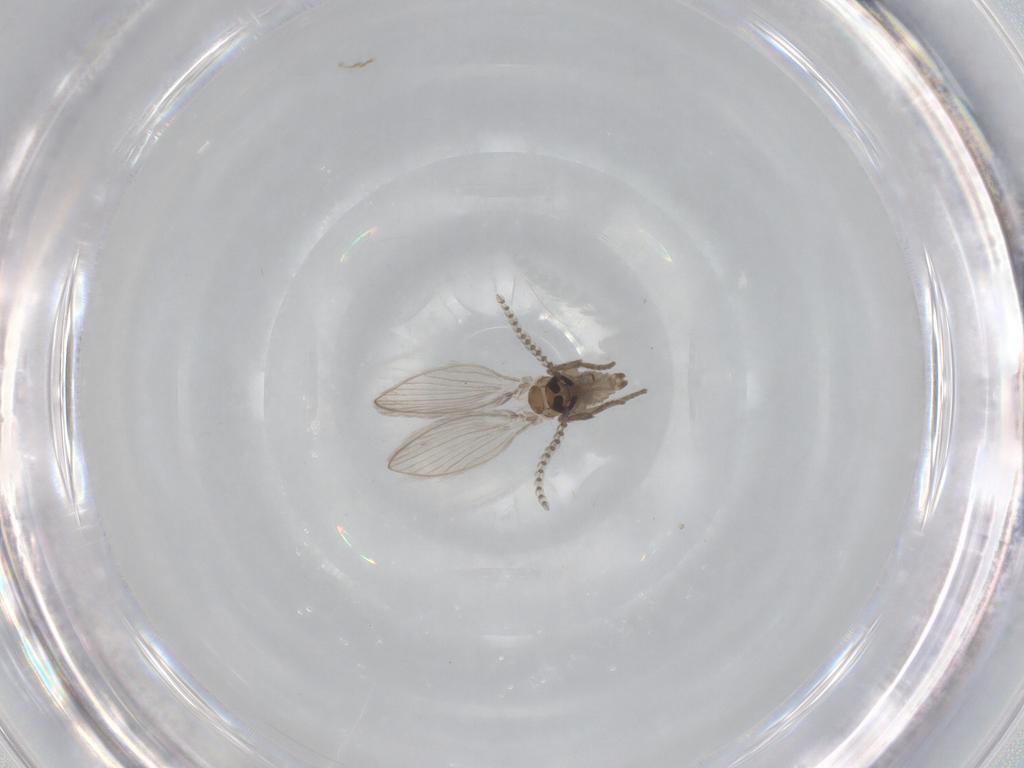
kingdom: Animalia
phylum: Arthropoda
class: Insecta
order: Diptera
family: Psychodidae
